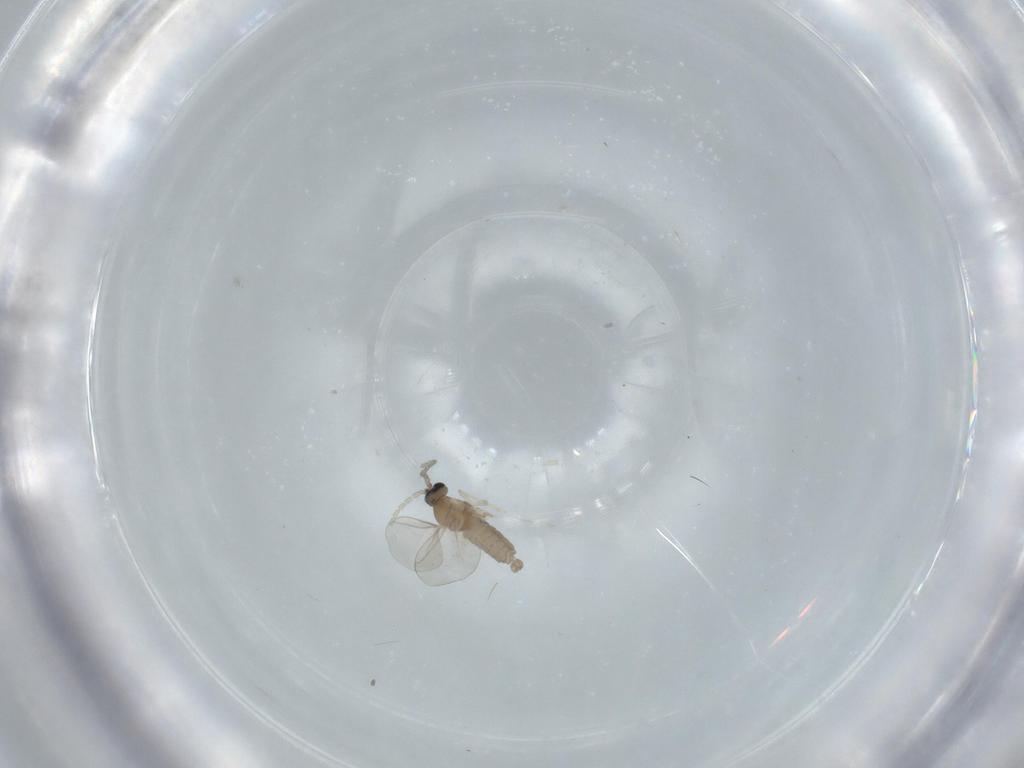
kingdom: Animalia
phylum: Arthropoda
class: Insecta
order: Diptera
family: Cecidomyiidae
